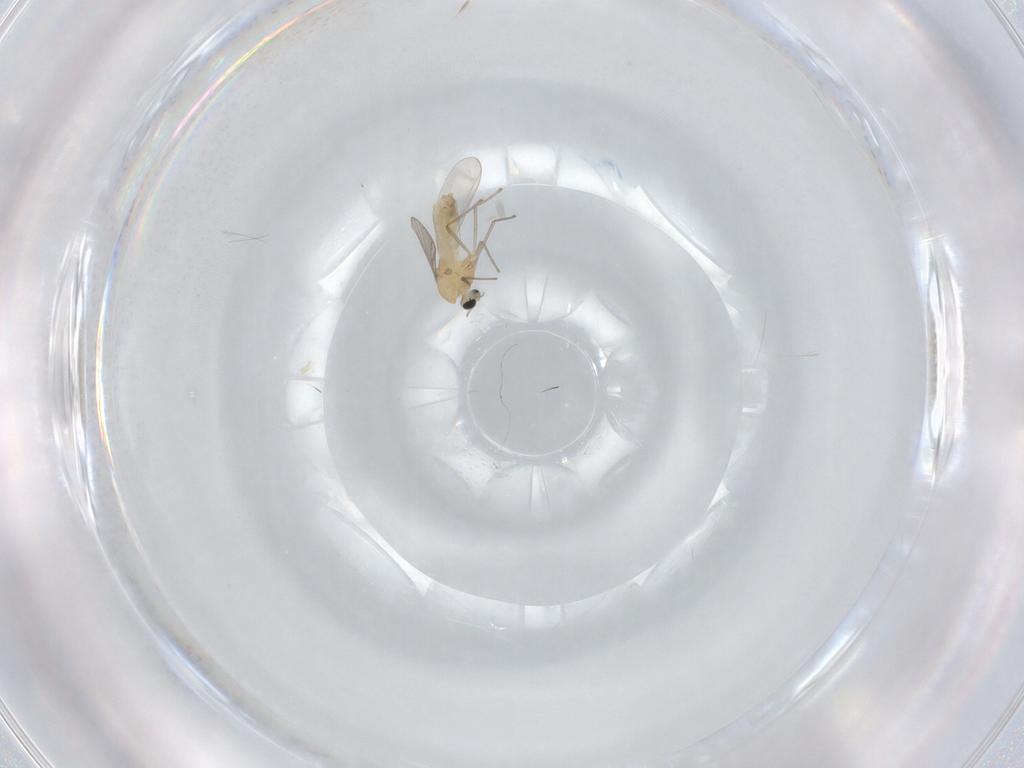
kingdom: Animalia
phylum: Arthropoda
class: Insecta
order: Diptera
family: Chironomidae
